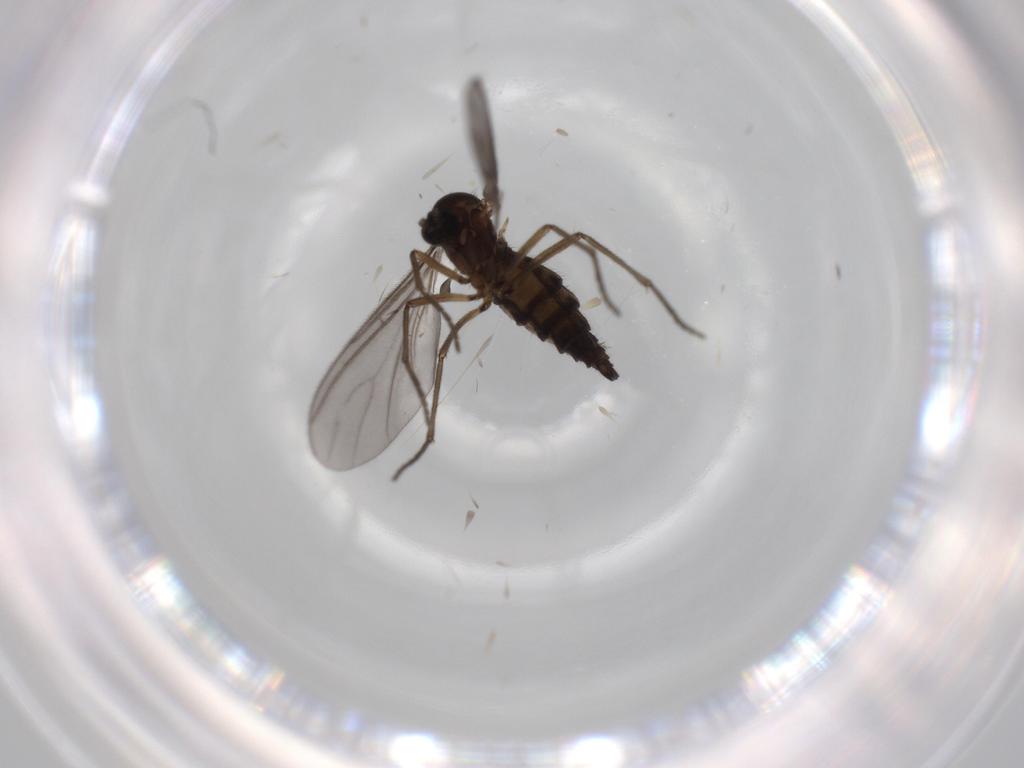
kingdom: Animalia
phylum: Arthropoda
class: Insecta
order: Diptera
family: Sciaridae
